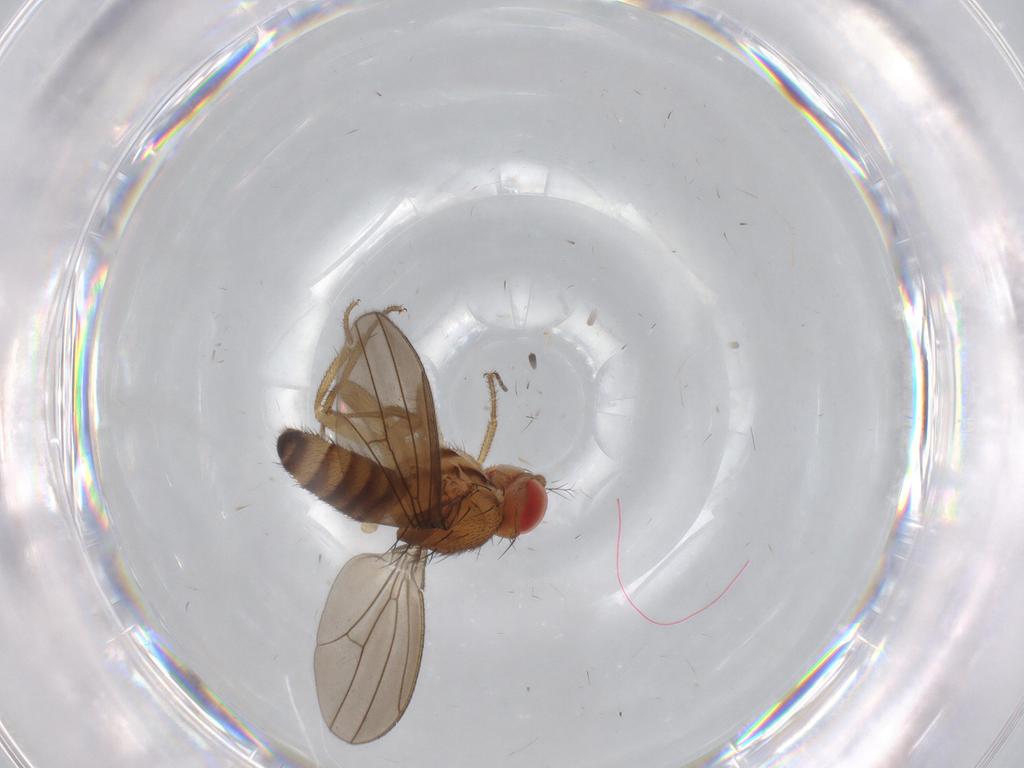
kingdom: Animalia
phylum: Arthropoda
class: Insecta
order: Diptera
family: Drosophilidae
